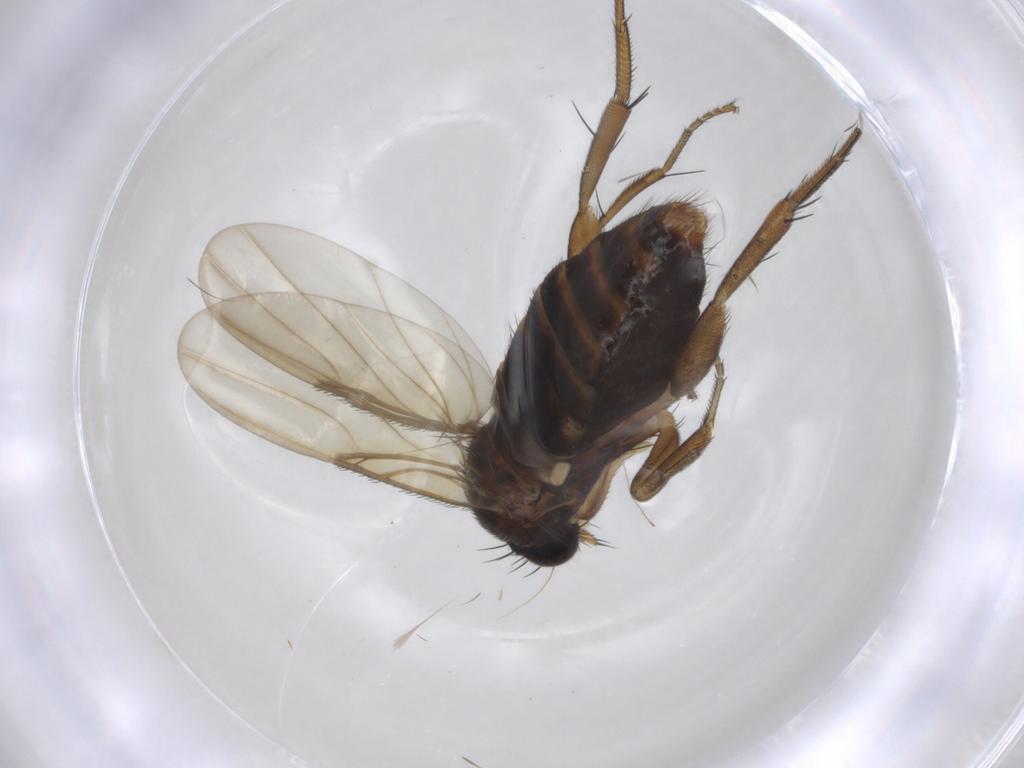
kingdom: Animalia
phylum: Arthropoda
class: Insecta
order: Diptera
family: Phoridae
